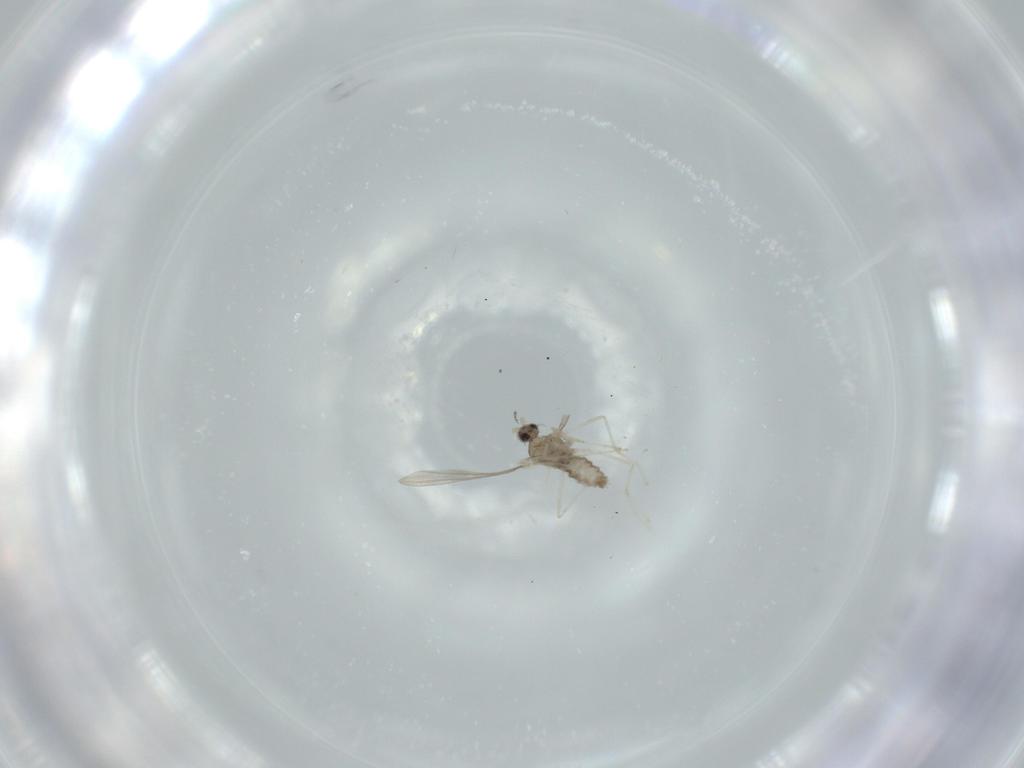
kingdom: Animalia
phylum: Arthropoda
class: Insecta
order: Diptera
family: Cecidomyiidae
